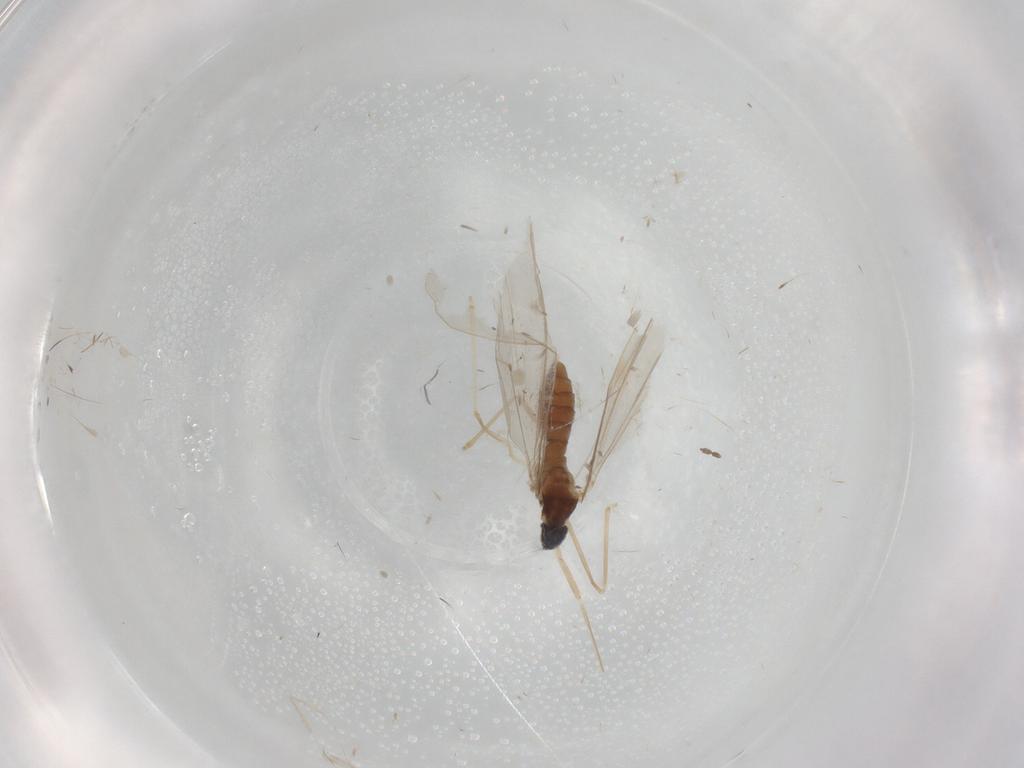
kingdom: Animalia
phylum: Arthropoda
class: Insecta
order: Diptera
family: Cecidomyiidae
